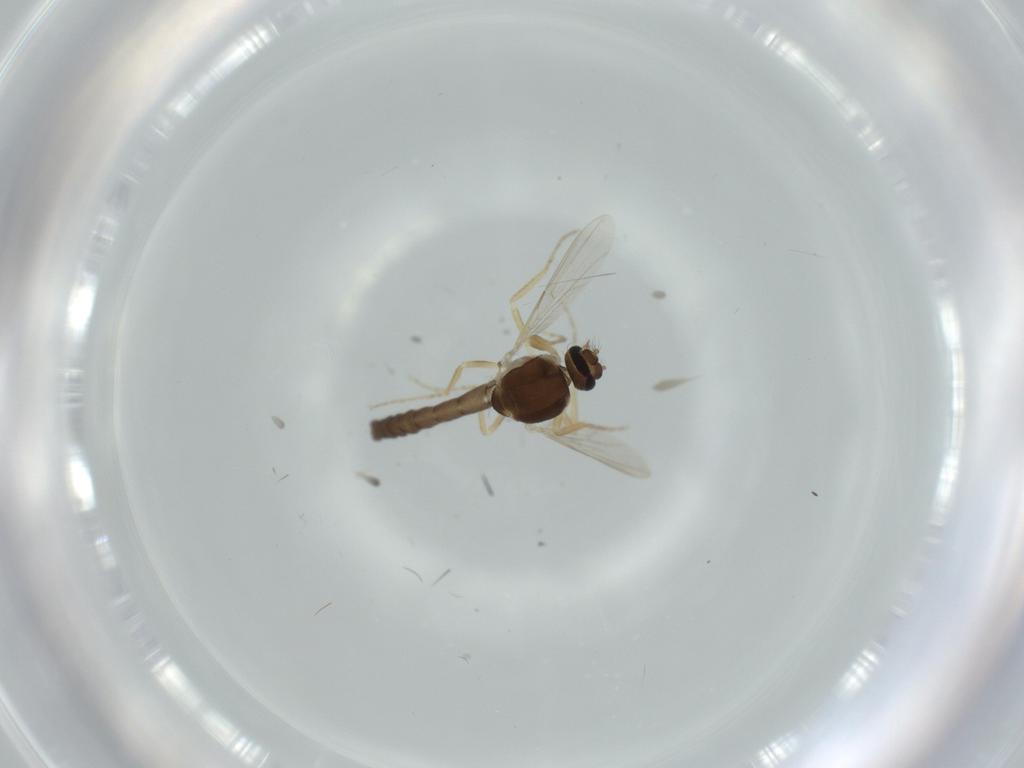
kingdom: Animalia
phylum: Arthropoda
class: Insecta
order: Diptera
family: Ceratopogonidae
